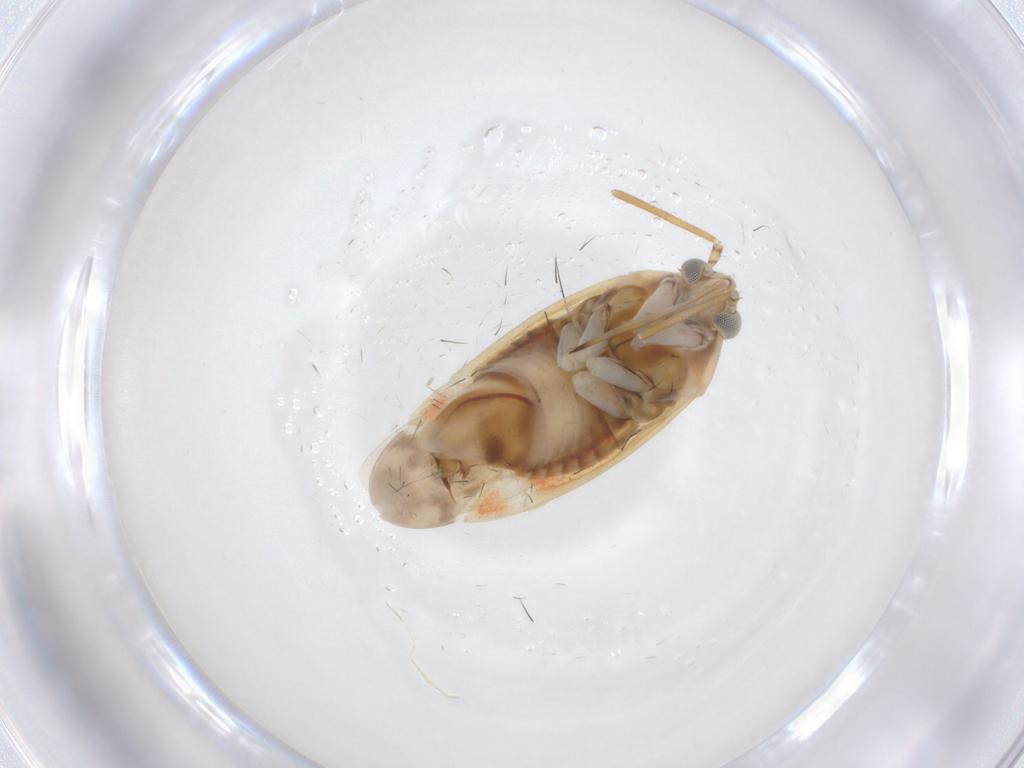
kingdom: Animalia
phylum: Arthropoda
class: Insecta
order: Hemiptera
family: Miridae
